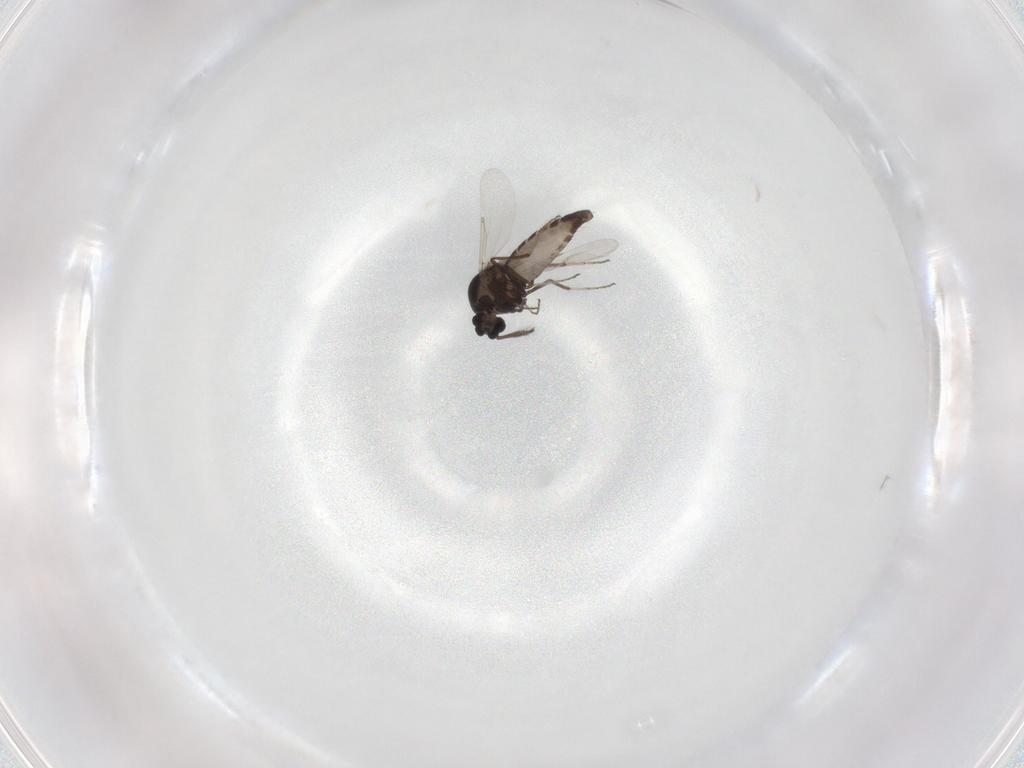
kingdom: Animalia
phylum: Arthropoda
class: Insecta
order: Diptera
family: Ceratopogonidae
